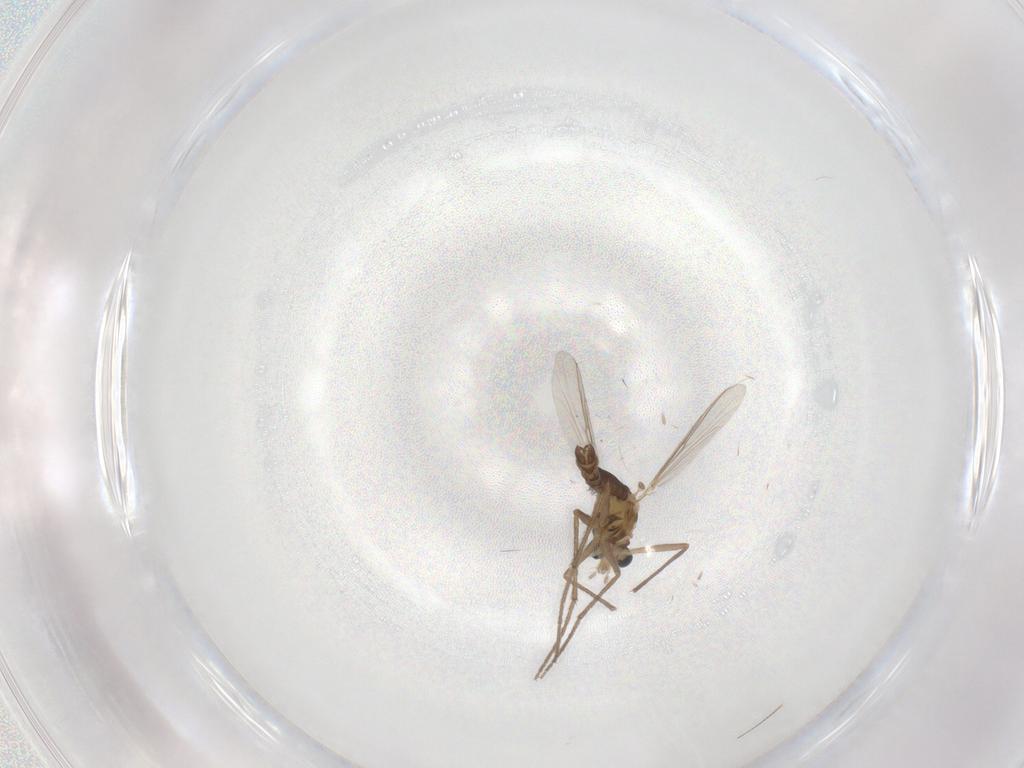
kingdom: Animalia
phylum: Arthropoda
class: Insecta
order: Diptera
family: Chironomidae
